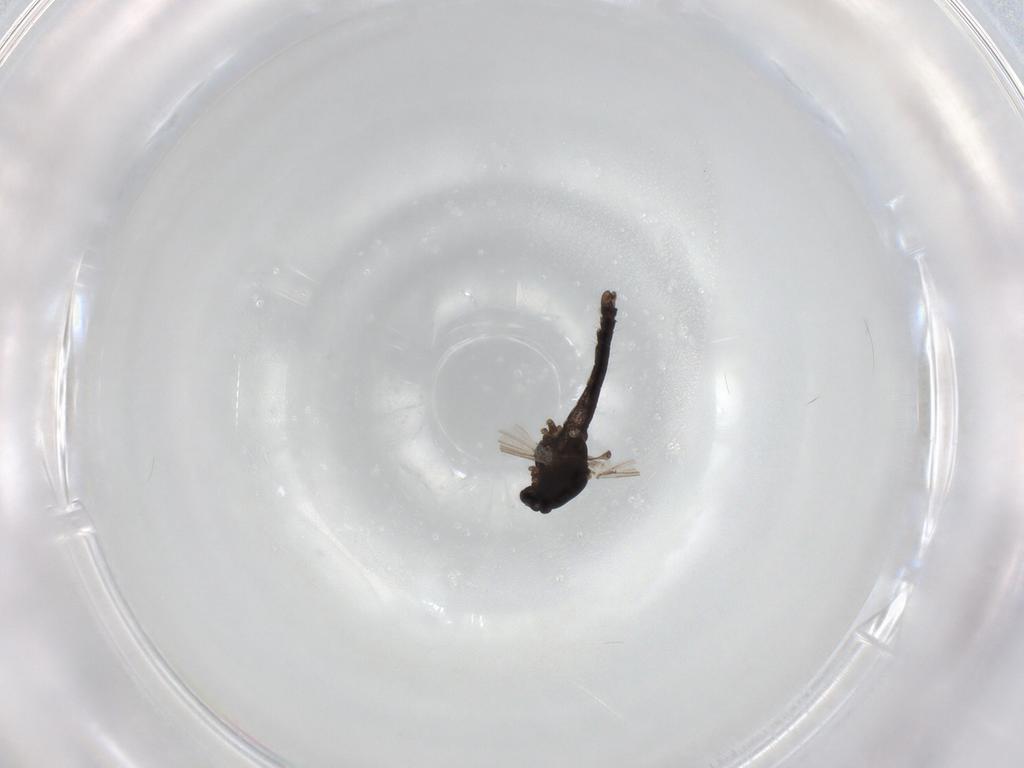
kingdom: Animalia
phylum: Arthropoda
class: Insecta
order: Diptera
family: Chironomidae
